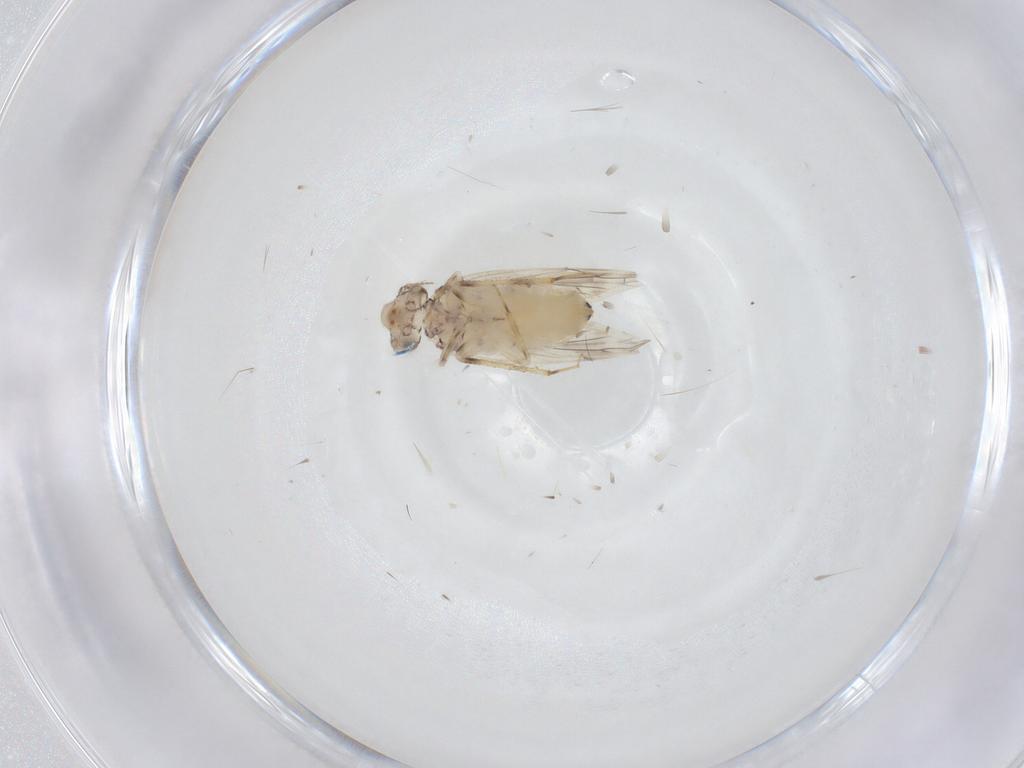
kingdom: Animalia
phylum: Arthropoda
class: Insecta
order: Psocodea
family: Lepidopsocidae
